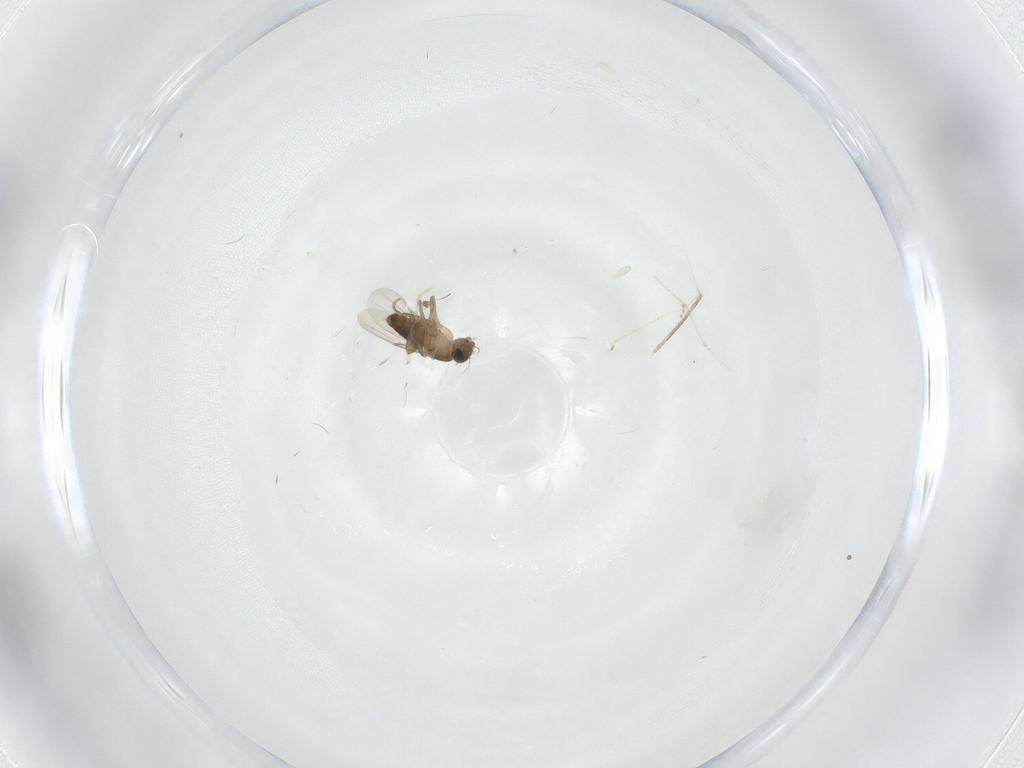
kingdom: Animalia
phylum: Arthropoda
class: Insecta
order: Diptera
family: Phoridae
